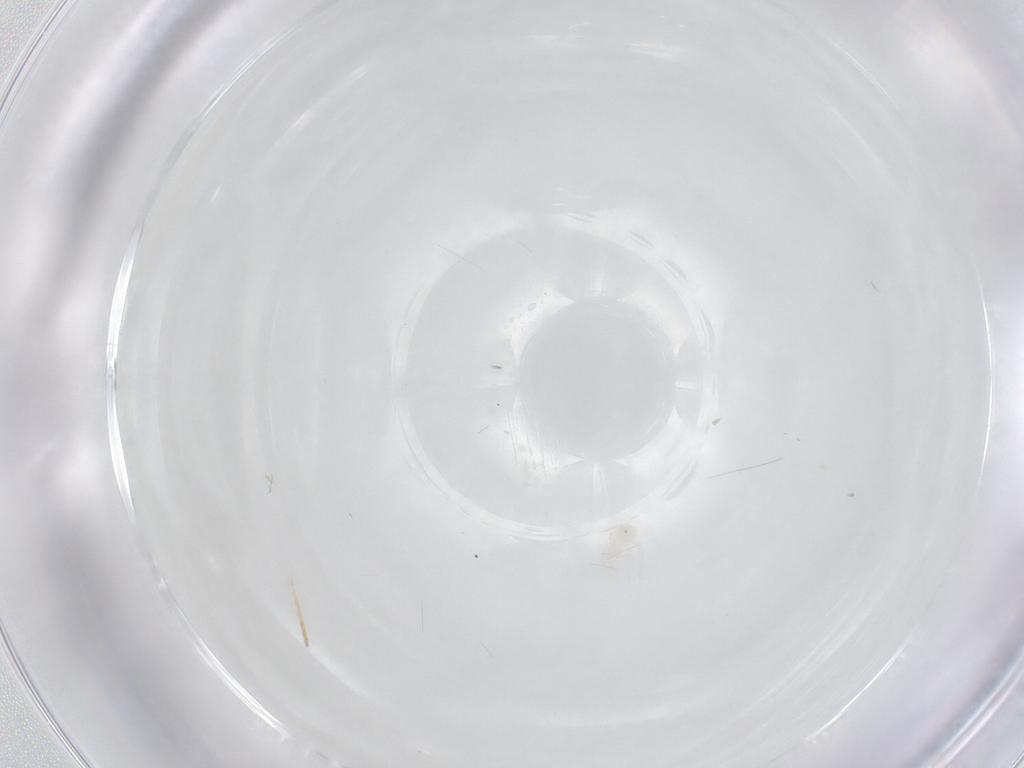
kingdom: Animalia
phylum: Arthropoda
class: Arachnida
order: Trombidiformes
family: Anystidae
